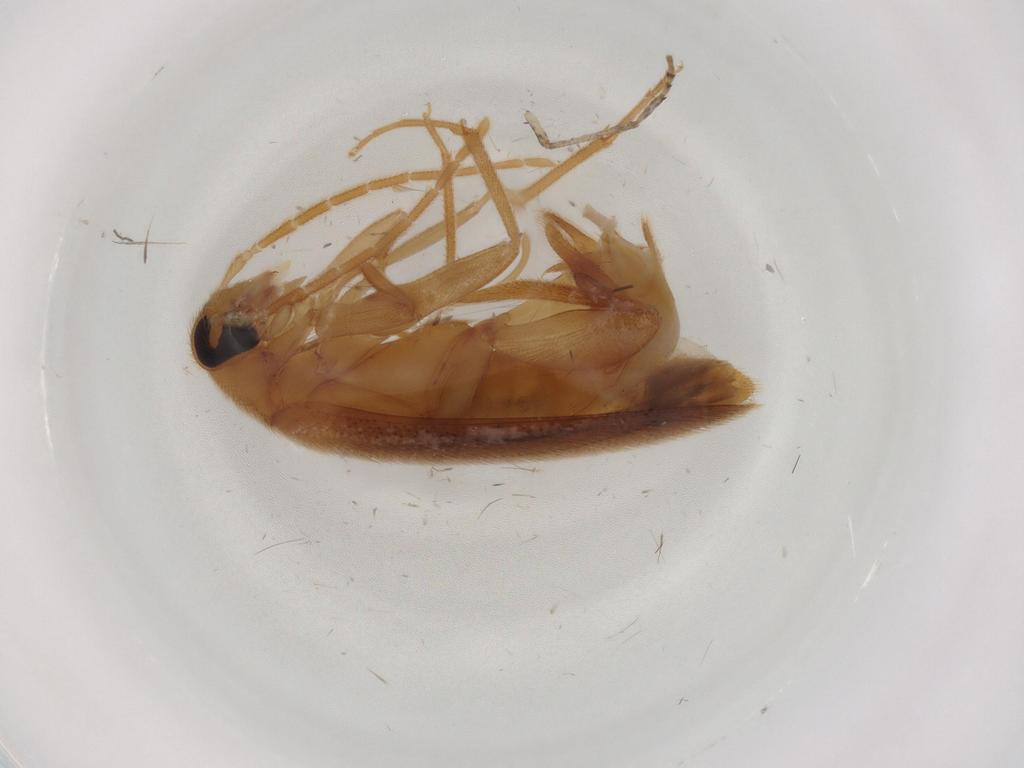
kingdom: Animalia
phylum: Arthropoda
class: Insecta
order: Coleoptera
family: Scraptiidae
